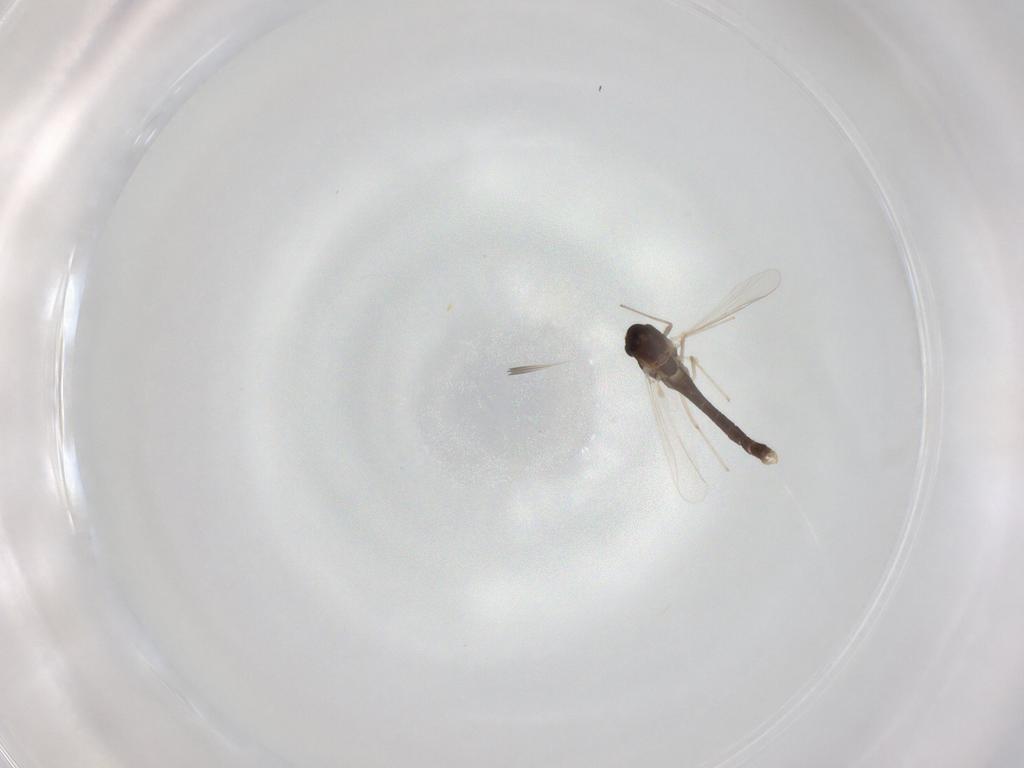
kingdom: Animalia
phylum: Arthropoda
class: Insecta
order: Diptera
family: Chironomidae
